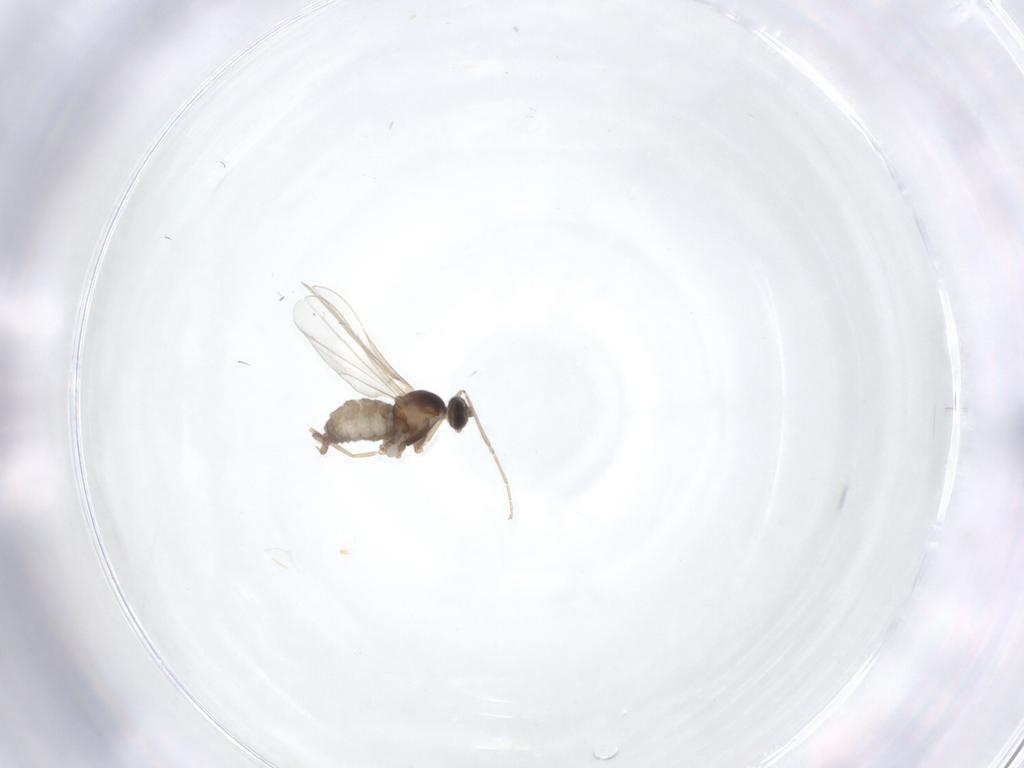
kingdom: Animalia
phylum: Arthropoda
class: Insecta
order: Diptera
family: Cecidomyiidae
